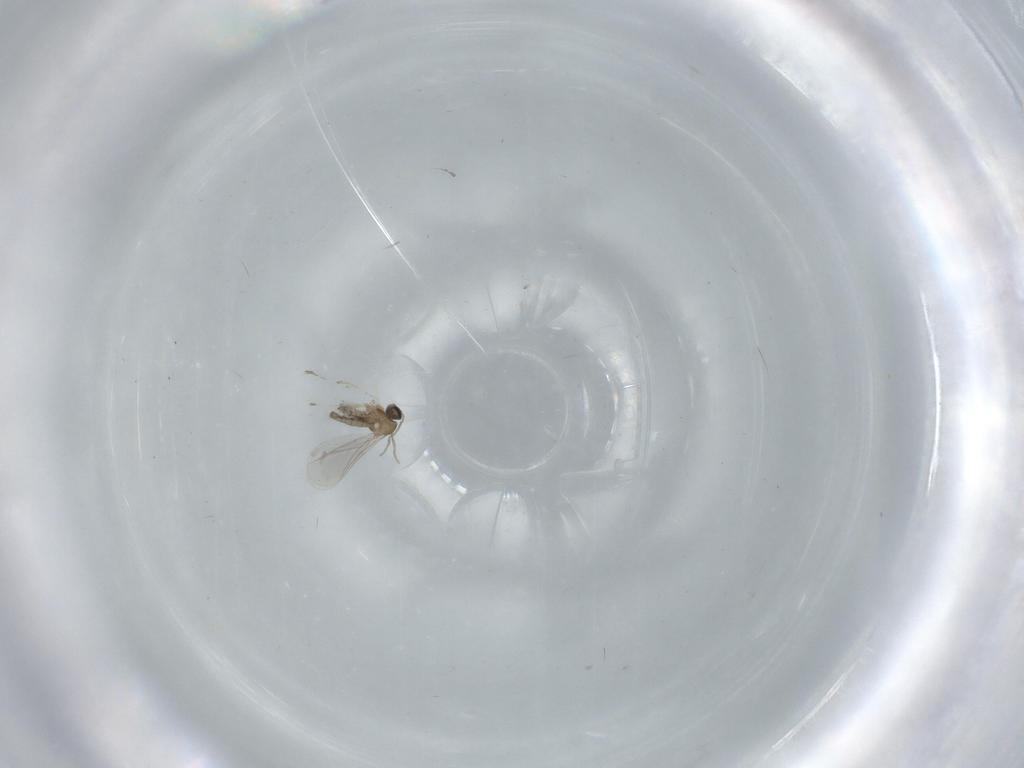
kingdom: Animalia
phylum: Arthropoda
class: Insecta
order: Diptera
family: Cecidomyiidae
